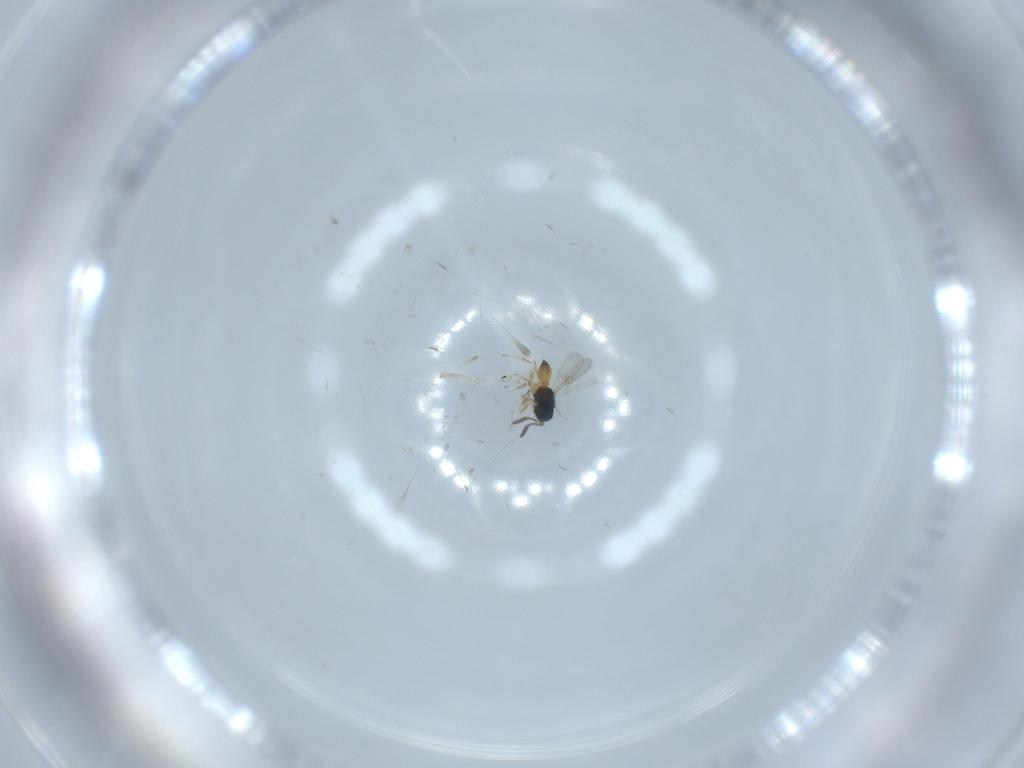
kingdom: Animalia
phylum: Arthropoda
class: Insecta
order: Hymenoptera
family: Scelionidae
